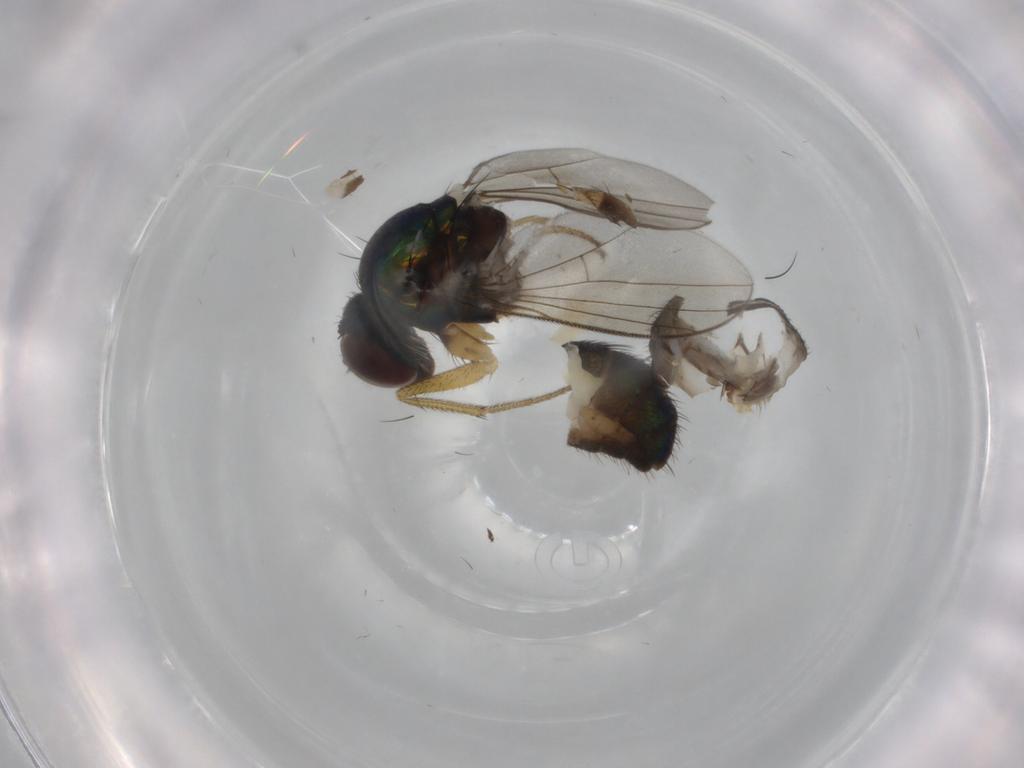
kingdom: Animalia
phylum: Arthropoda
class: Insecta
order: Diptera
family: Dolichopodidae
